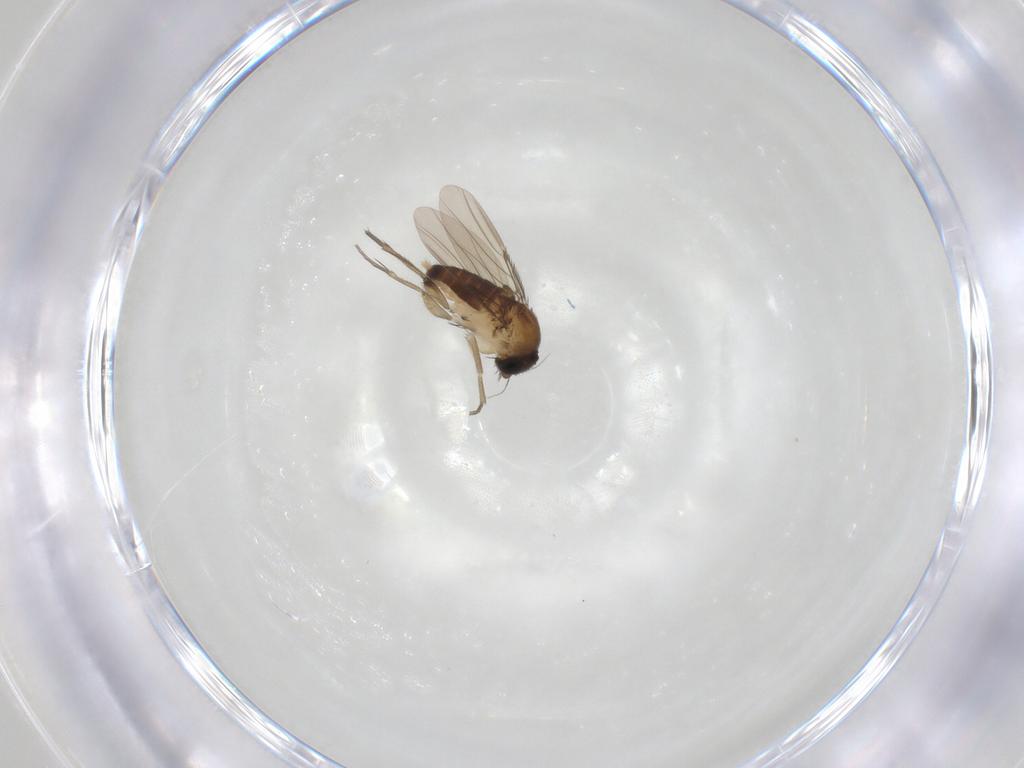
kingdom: Animalia
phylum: Arthropoda
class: Insecta
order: Diptera
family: Phoridae
